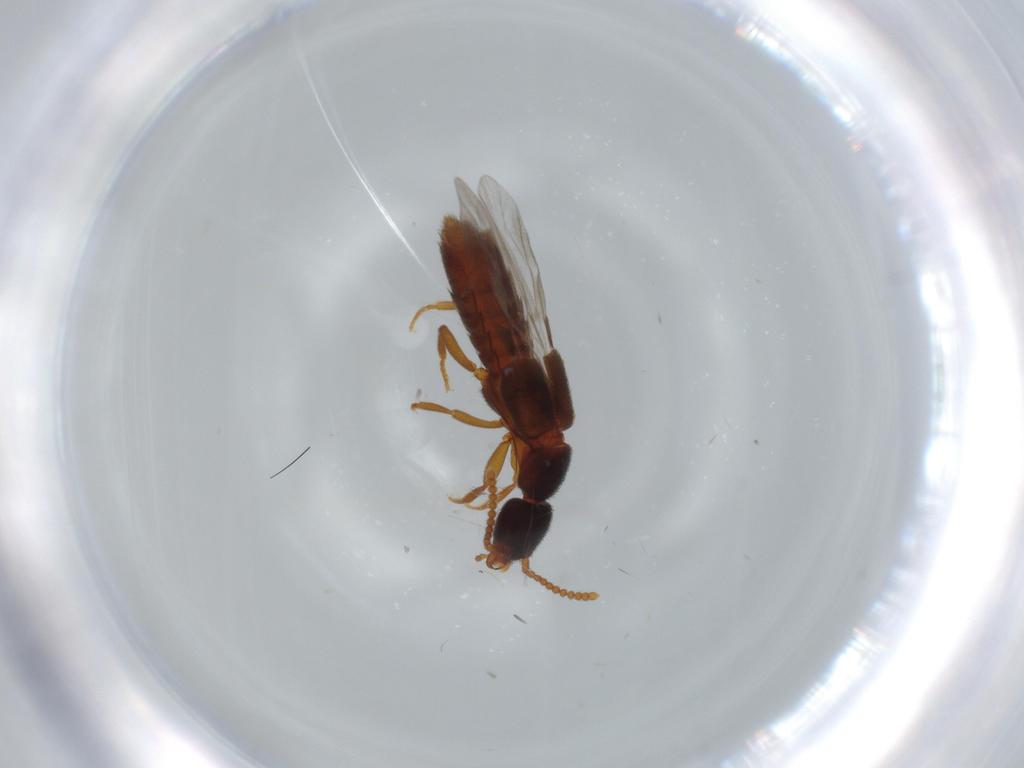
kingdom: Animalia
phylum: Arthropoda
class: Insecta
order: Coleoptera
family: Staphylinidae
